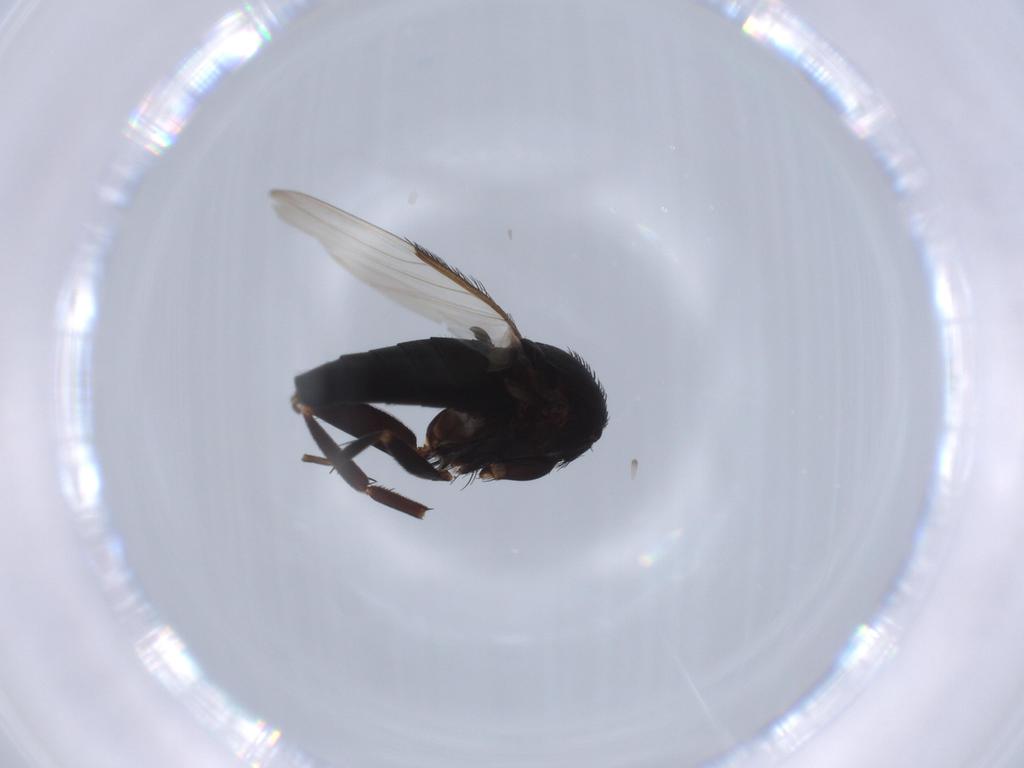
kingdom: Animalia
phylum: Arthropoda
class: Insecta
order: Diptera
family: Phoridae
